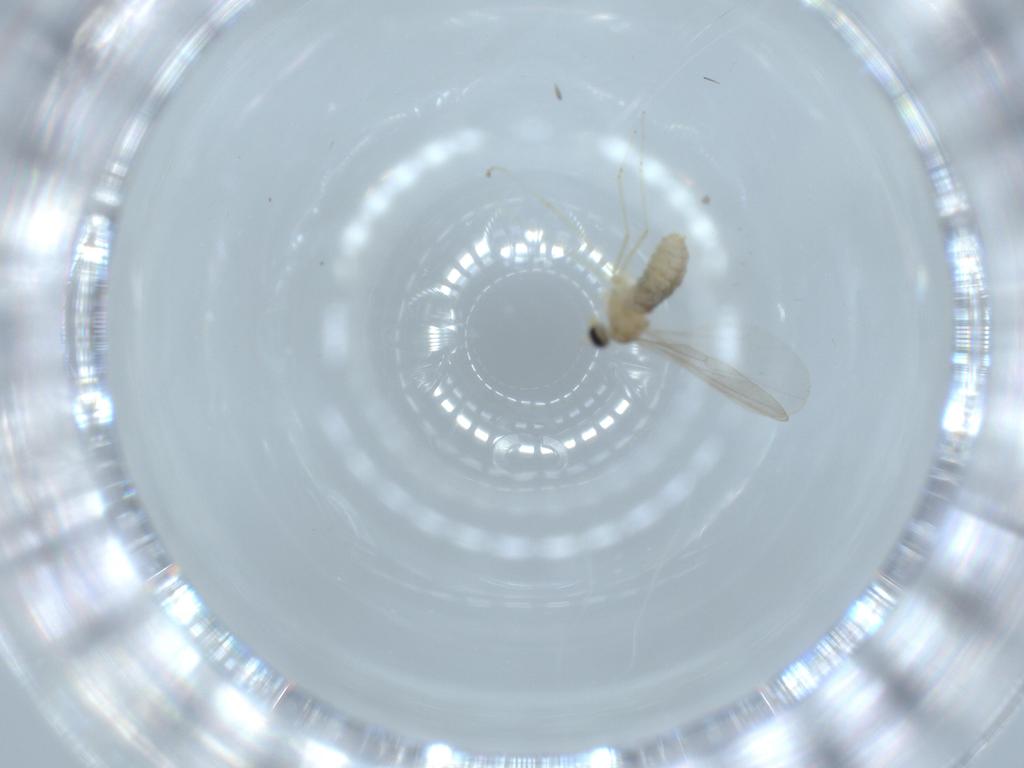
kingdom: Animalia
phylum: Arthropoda
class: Insecta
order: Diptera
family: Cecidomyiidae
